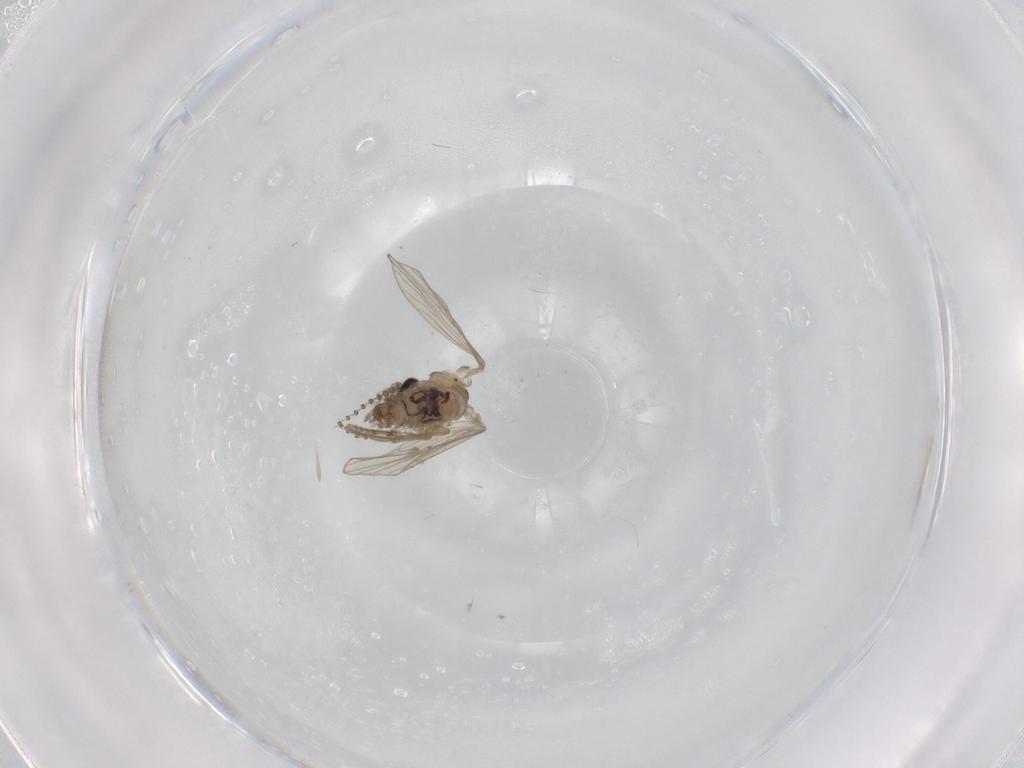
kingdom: Animalia
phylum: Arthropoda
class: Insecta
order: Diptera
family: Psychodidae
